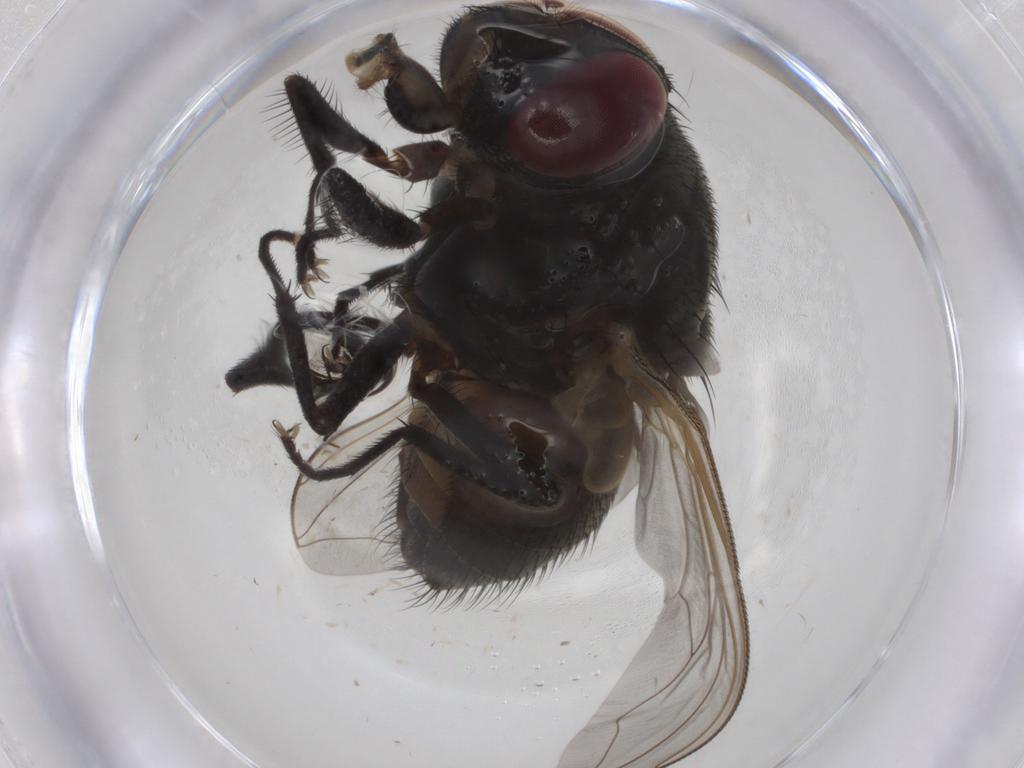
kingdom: Animalia
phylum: Arthropoda
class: Insecta
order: Diptera
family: Muscidae
